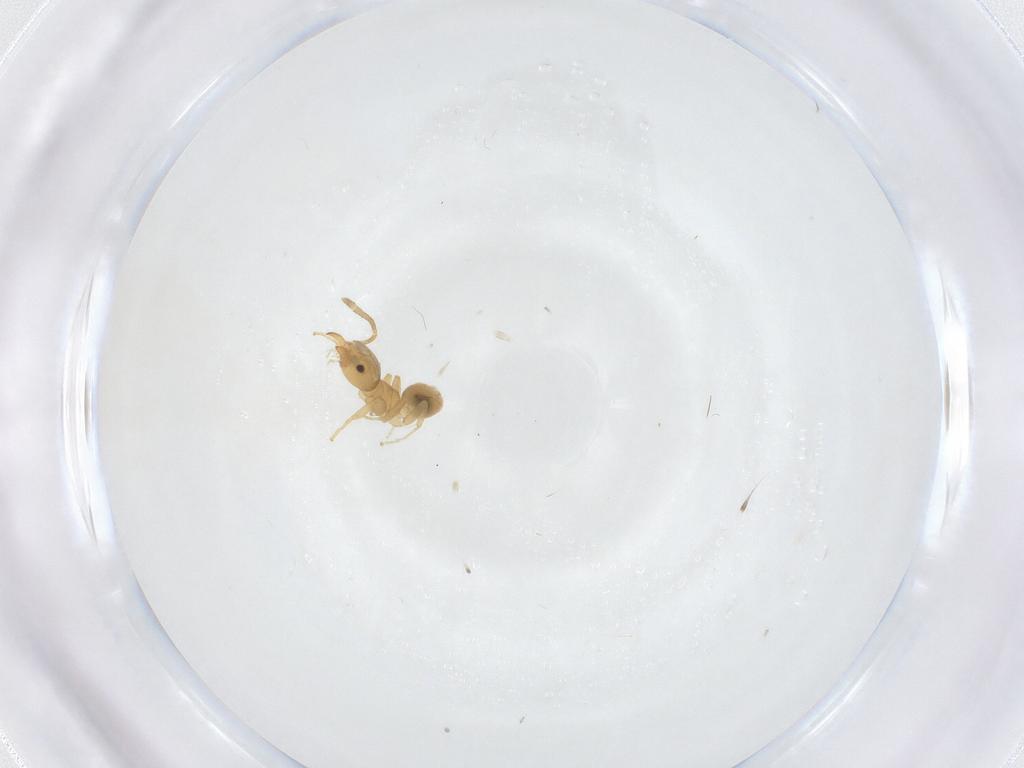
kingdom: Animalia
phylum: Arthropoda
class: Insecta
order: Hymenoptera
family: Formicidae
